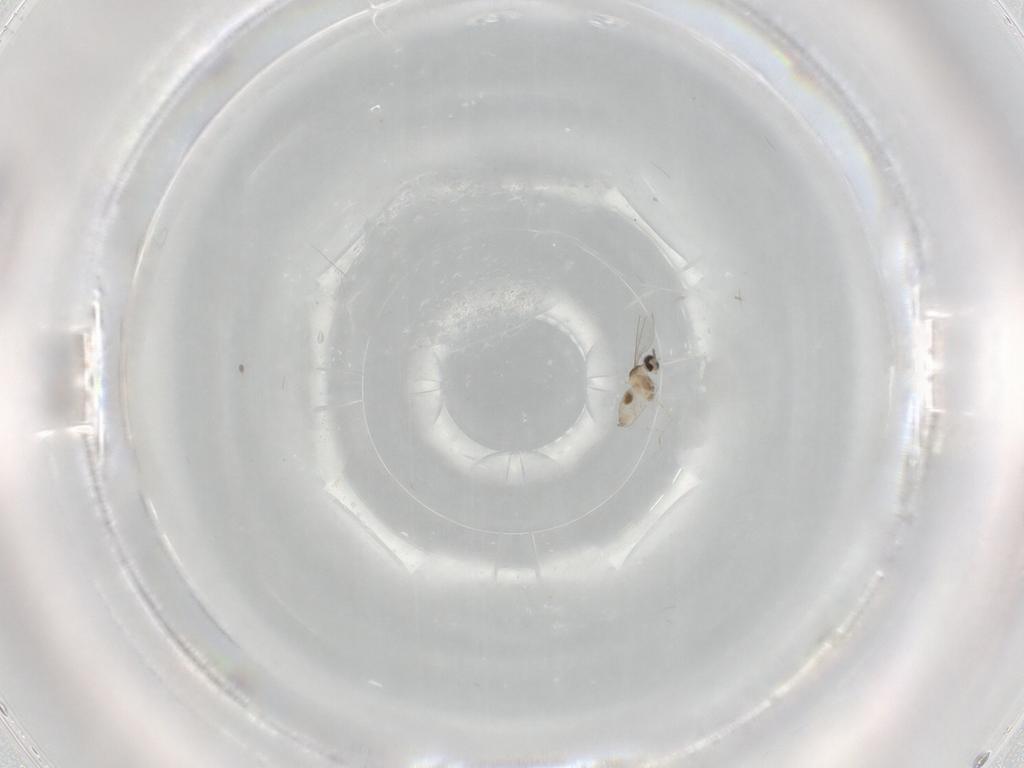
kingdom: Animalia
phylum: Arthropoda
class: Insecta
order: Diptera
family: Cecidomyiidae
